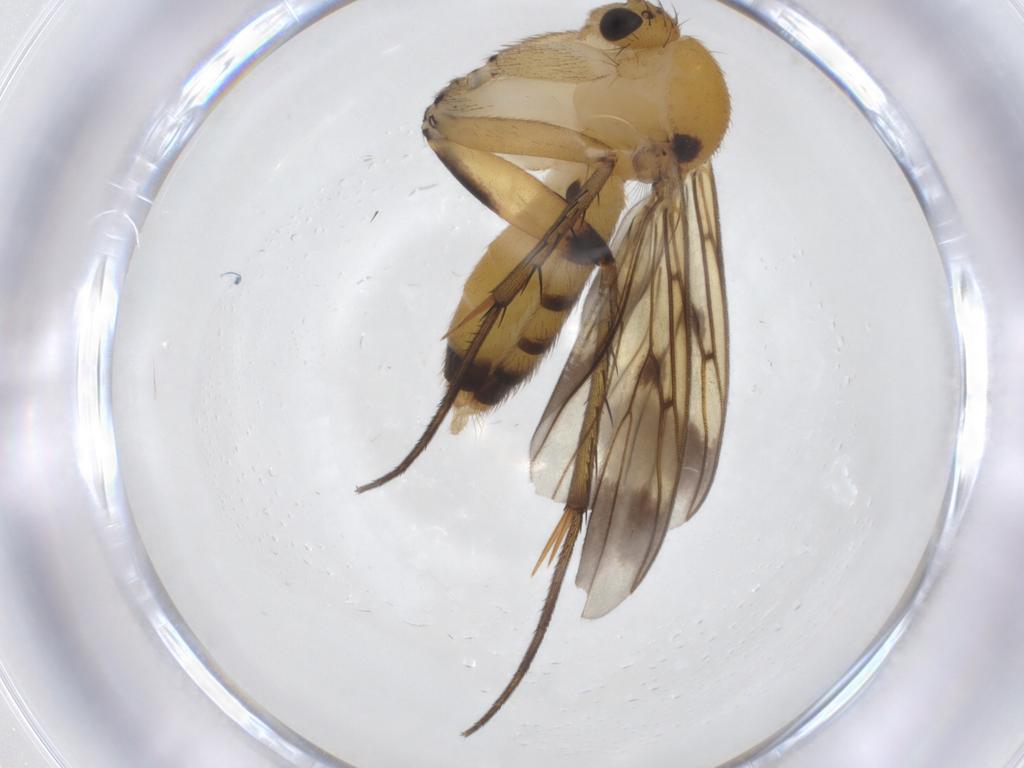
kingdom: Animalia
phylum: Arthropoda
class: Insecta
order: Diptera
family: Mycetophilidae
